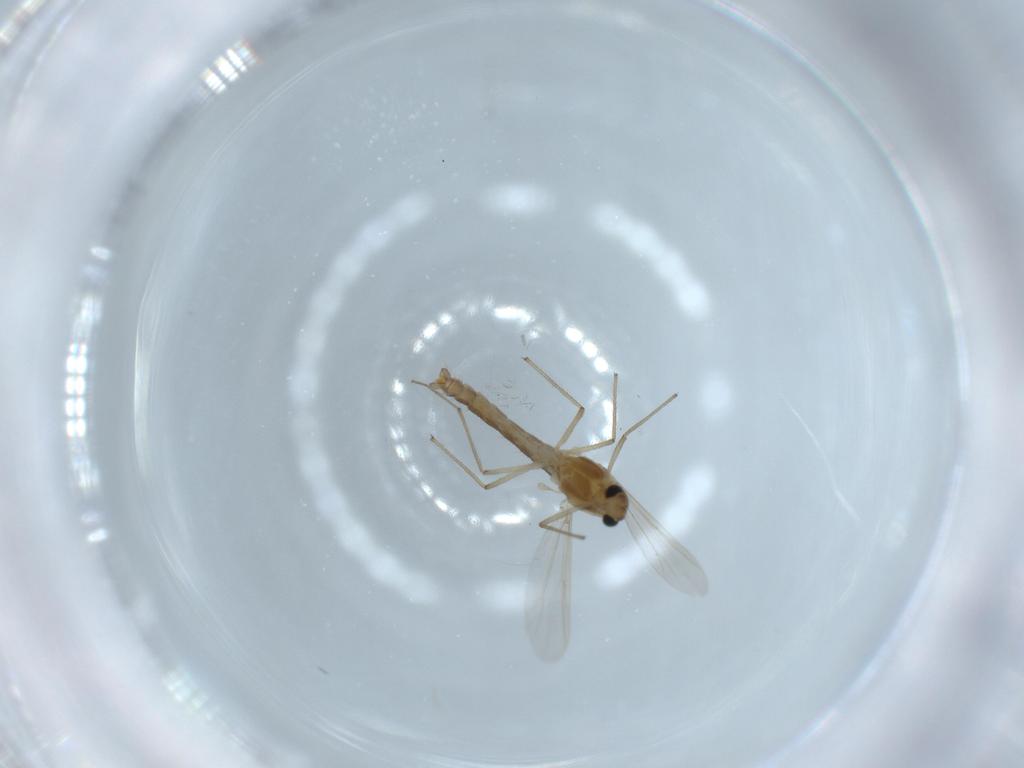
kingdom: Animalia
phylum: Arthropoda
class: Insecta
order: Diptera
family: Chironomidae
